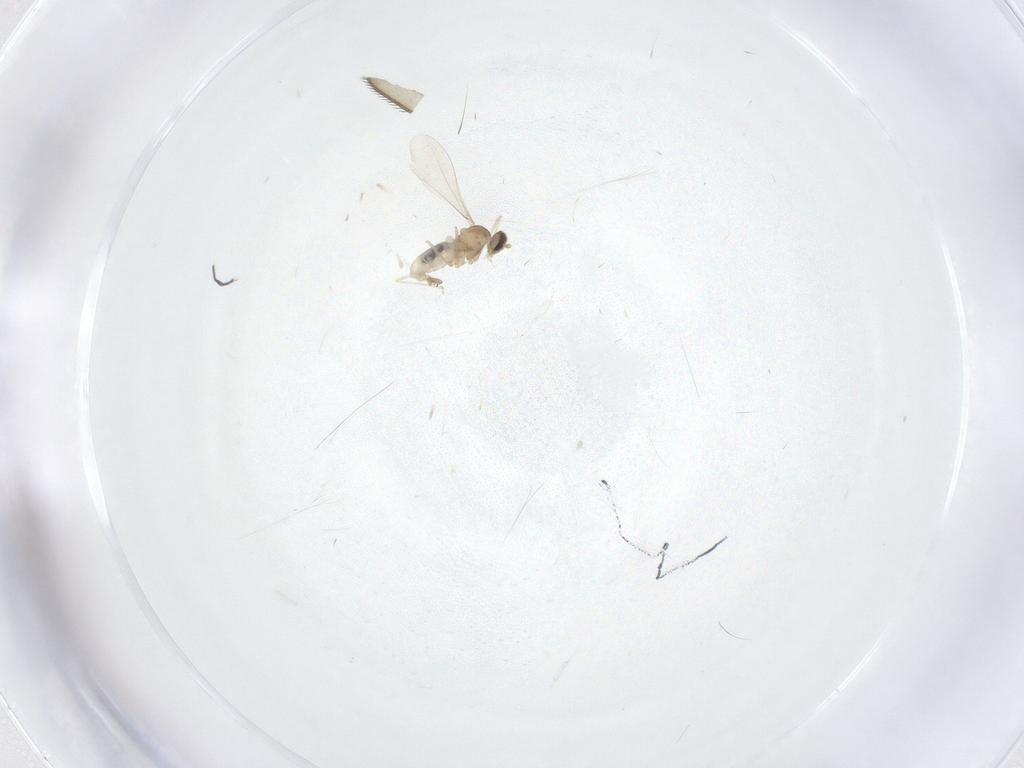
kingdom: Animalia
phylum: Arthropoda
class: Insecta
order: Diptera
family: Cecidomyiidae
